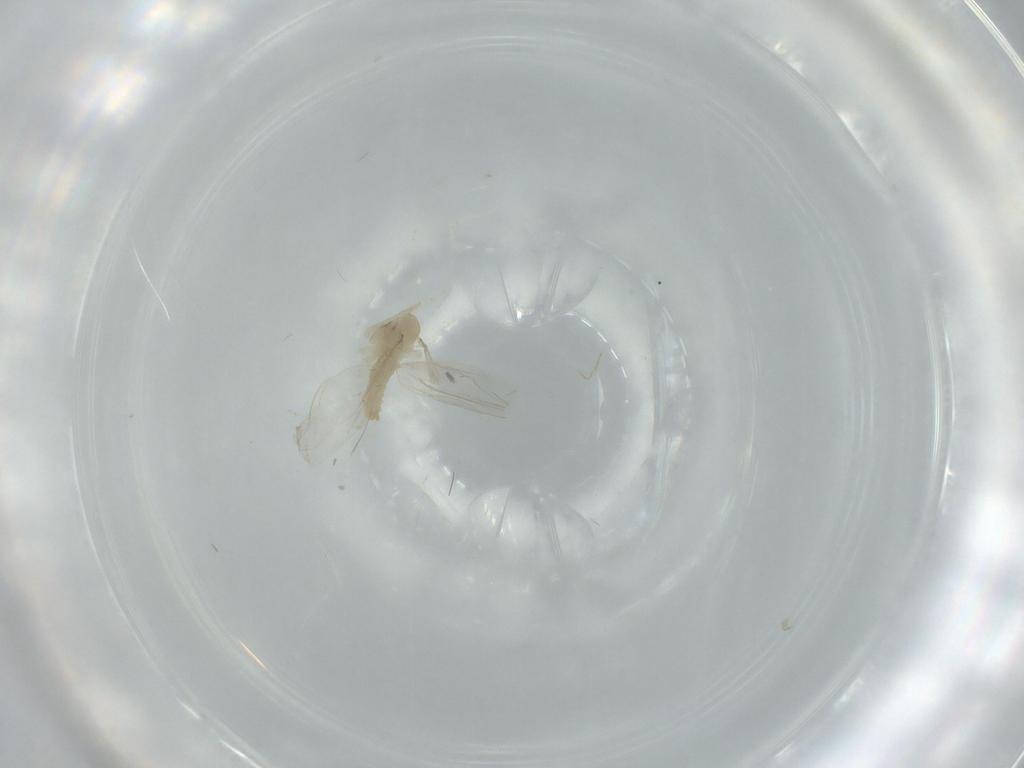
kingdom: Animalia
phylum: Arthropoda
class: Insecta
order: Diptera
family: Cecidomyiidae
